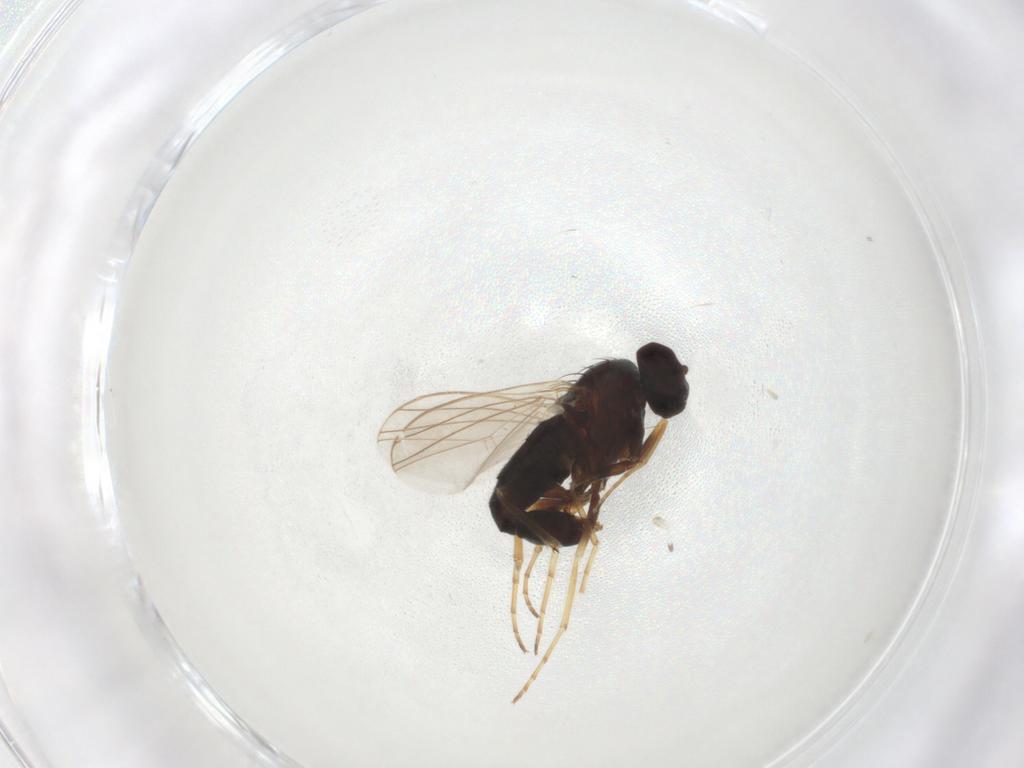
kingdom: Animalia
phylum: Arthropoda
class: Insecta
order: Diptera
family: Dolichopodidae
